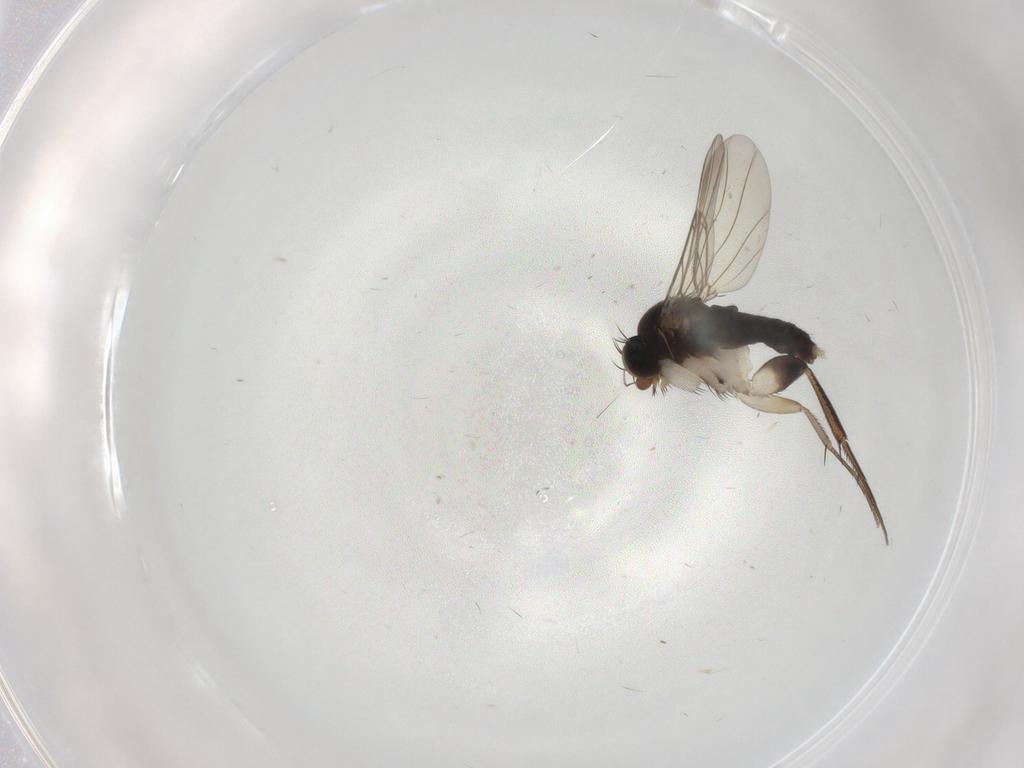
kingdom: Animalia
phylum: Arthropoda
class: Insecta
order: Diptera
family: Phoridae
